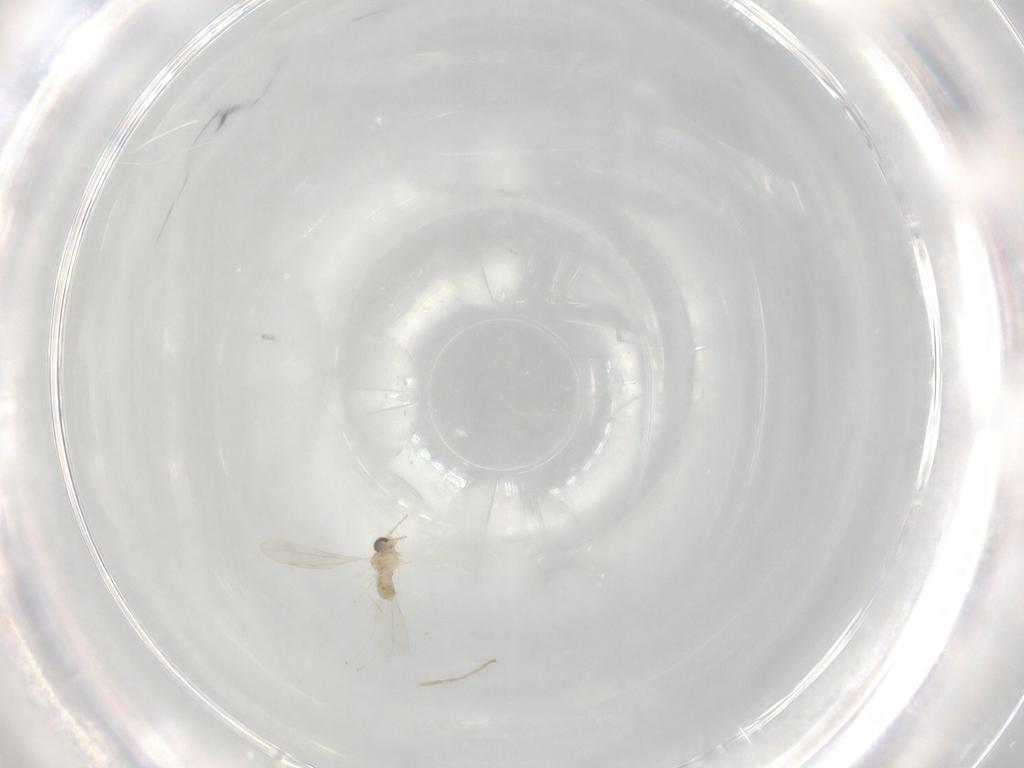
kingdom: Animalia
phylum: Arthropoda
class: Insecta
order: Diptera
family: Cecidomyiidae
